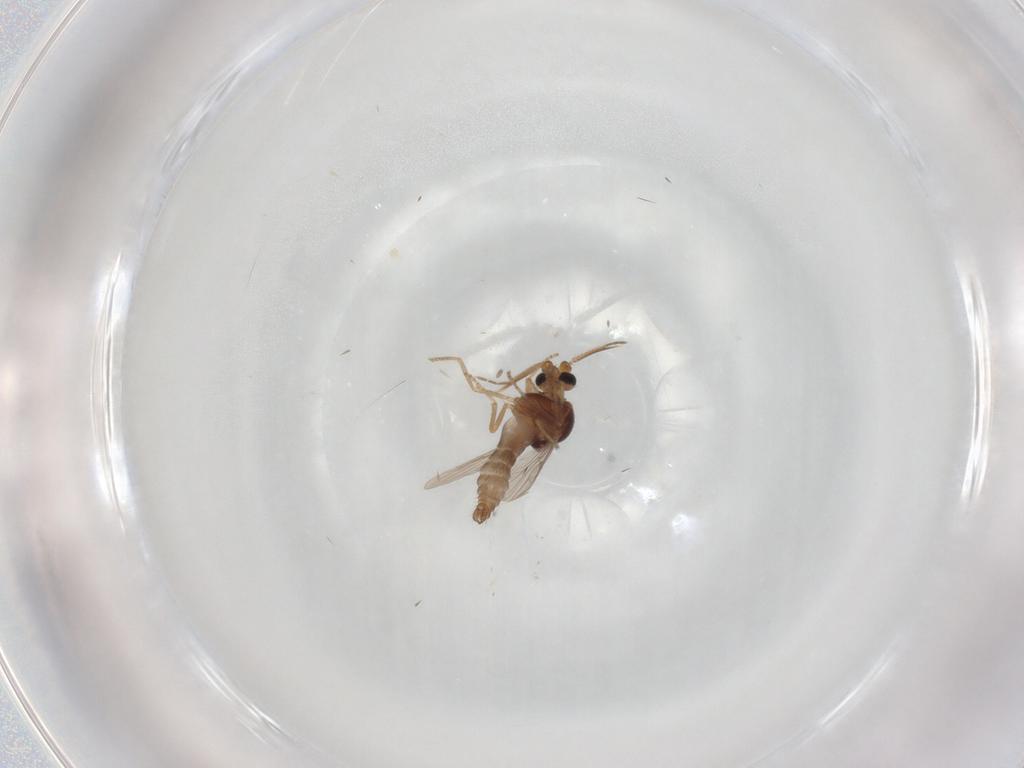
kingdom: Animalia
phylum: Arthropoda
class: Insecta
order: Diptera
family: Ceratopogonidae
